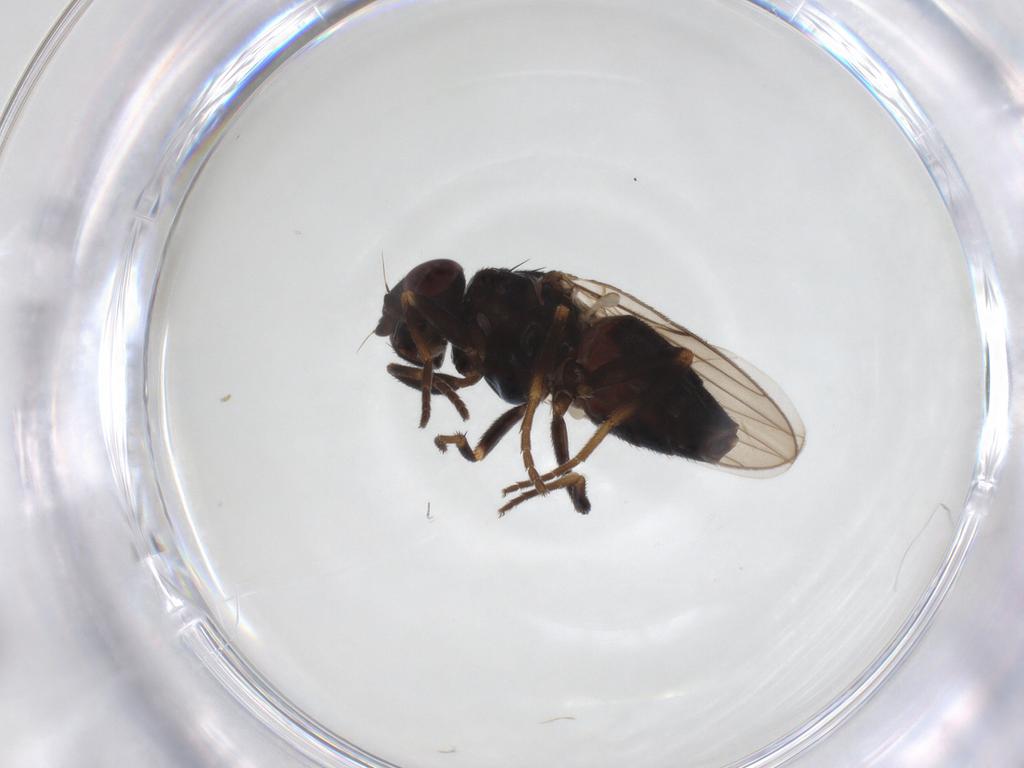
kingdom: Animalia
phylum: Arthropoda
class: Insecta
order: Diptera
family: Chloropidae
